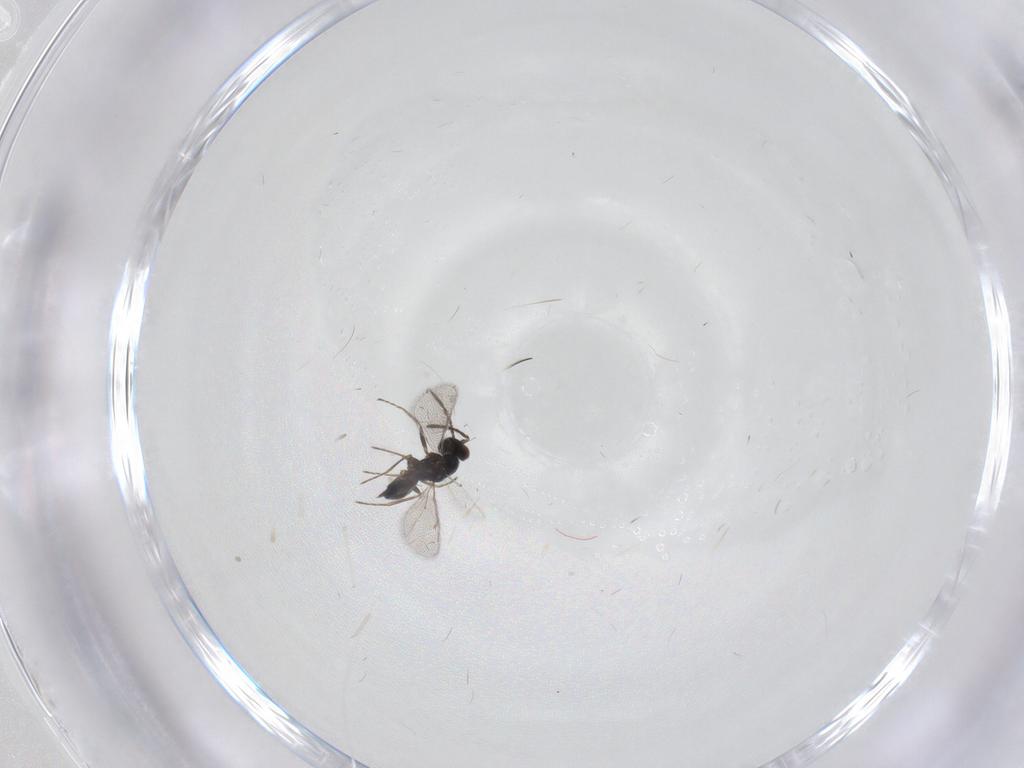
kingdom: Animalia
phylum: Arthropoda
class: Insecta
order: Hymenoptera
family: Eulophidae
